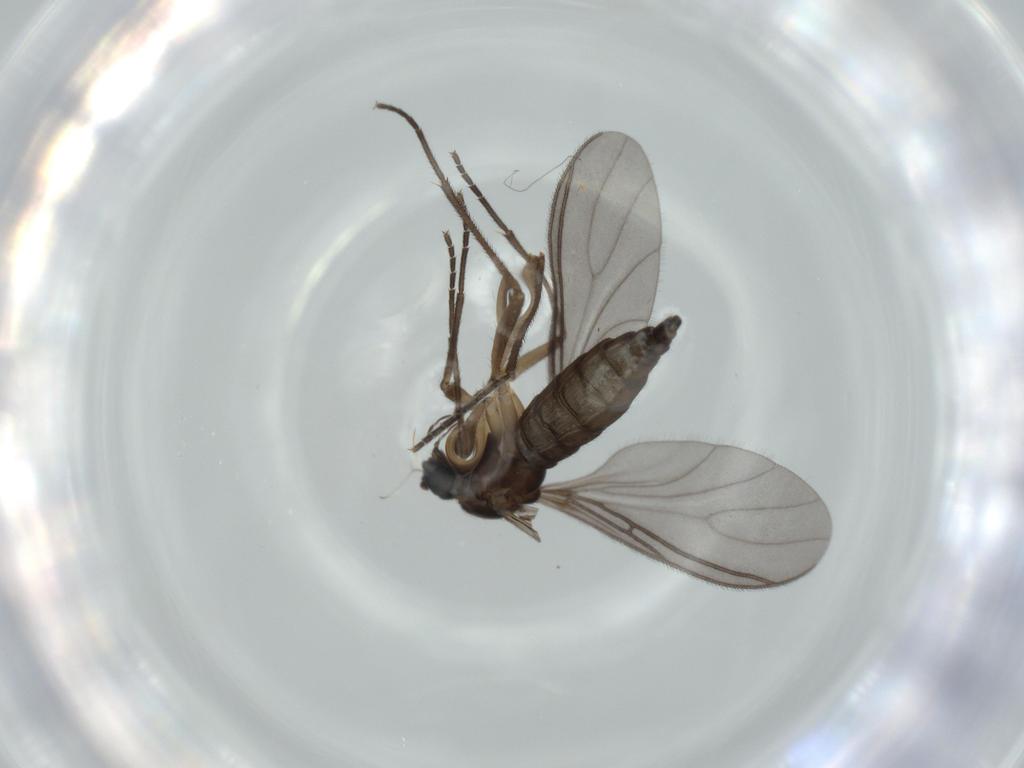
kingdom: Animalia
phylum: Arthropoda
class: Insecta
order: Diptera
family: Sciaridae
